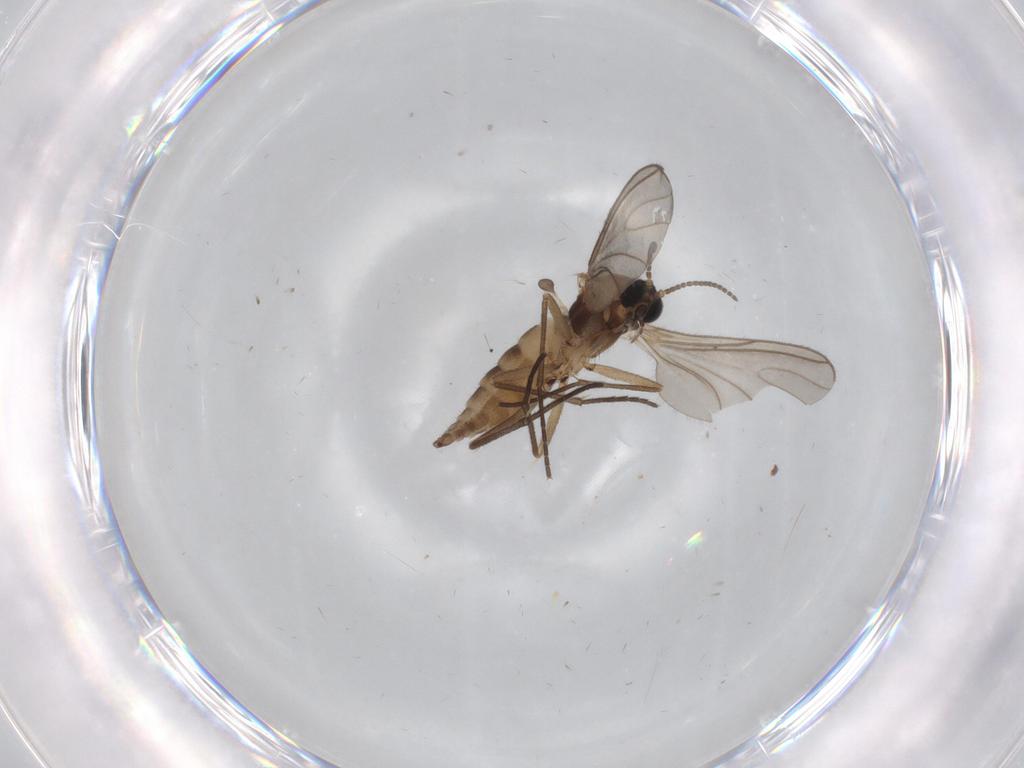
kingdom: Animalia
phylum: Arthropoda
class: Insecta
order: Diptera
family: Sciaridae
